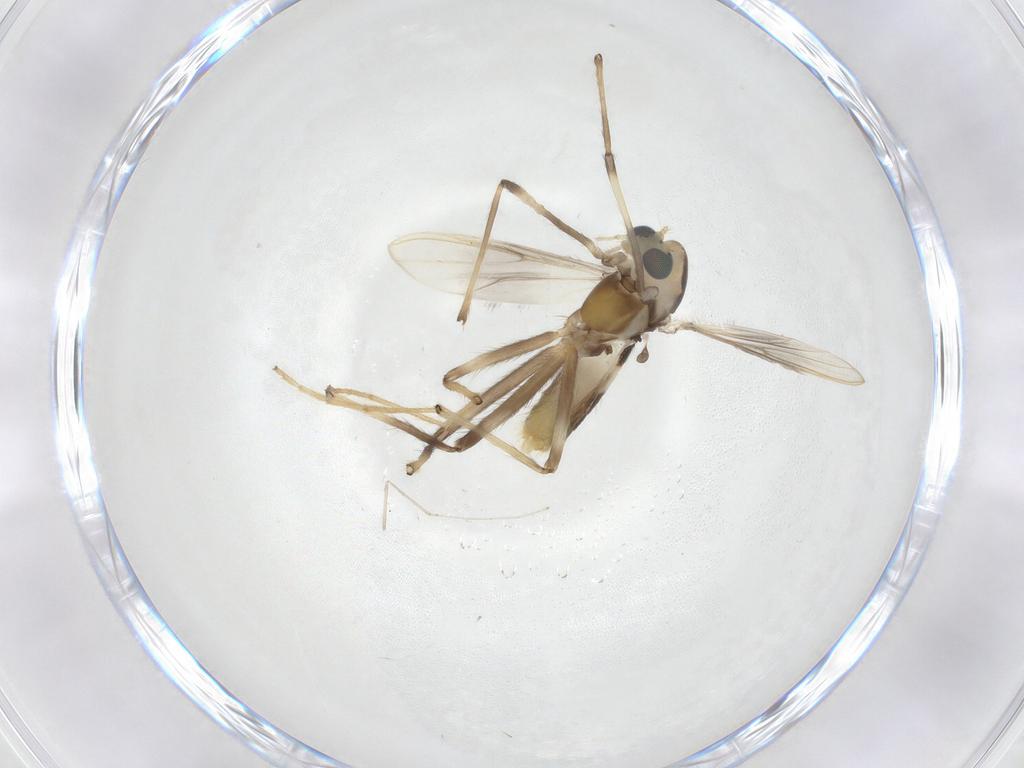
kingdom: Animalia
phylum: Arthropoda
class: Insecta
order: Diptera
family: Chironomidae
